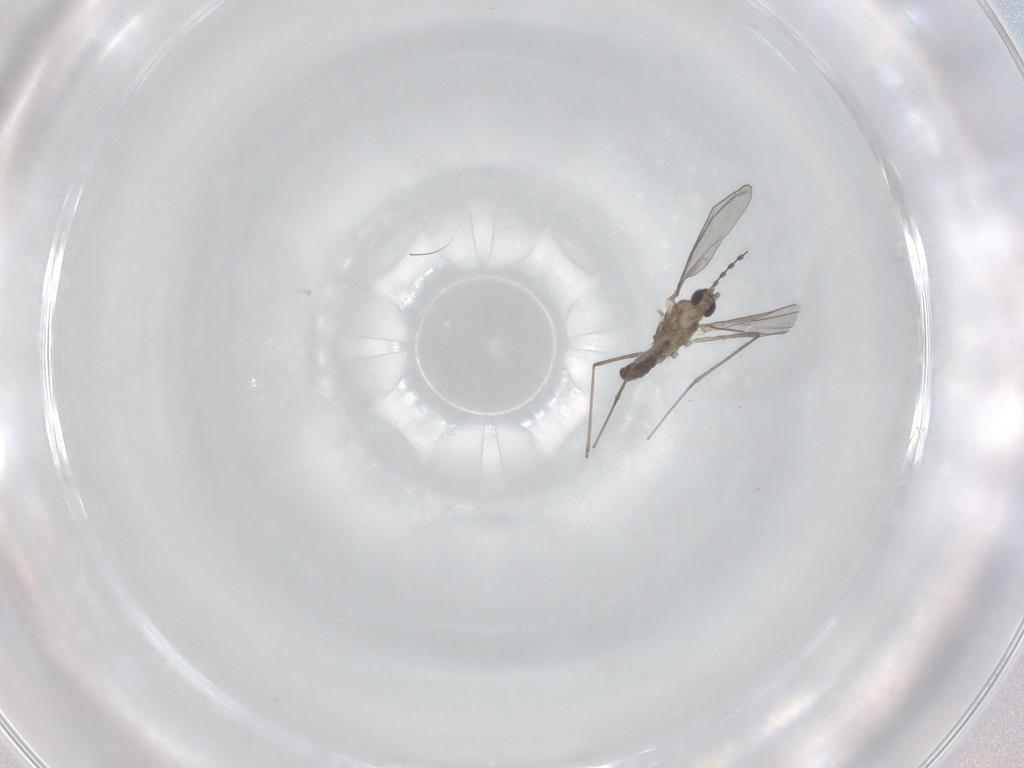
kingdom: Animalia
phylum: Arthropoda
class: Insecta
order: Diptera
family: Cecidomyiidae
